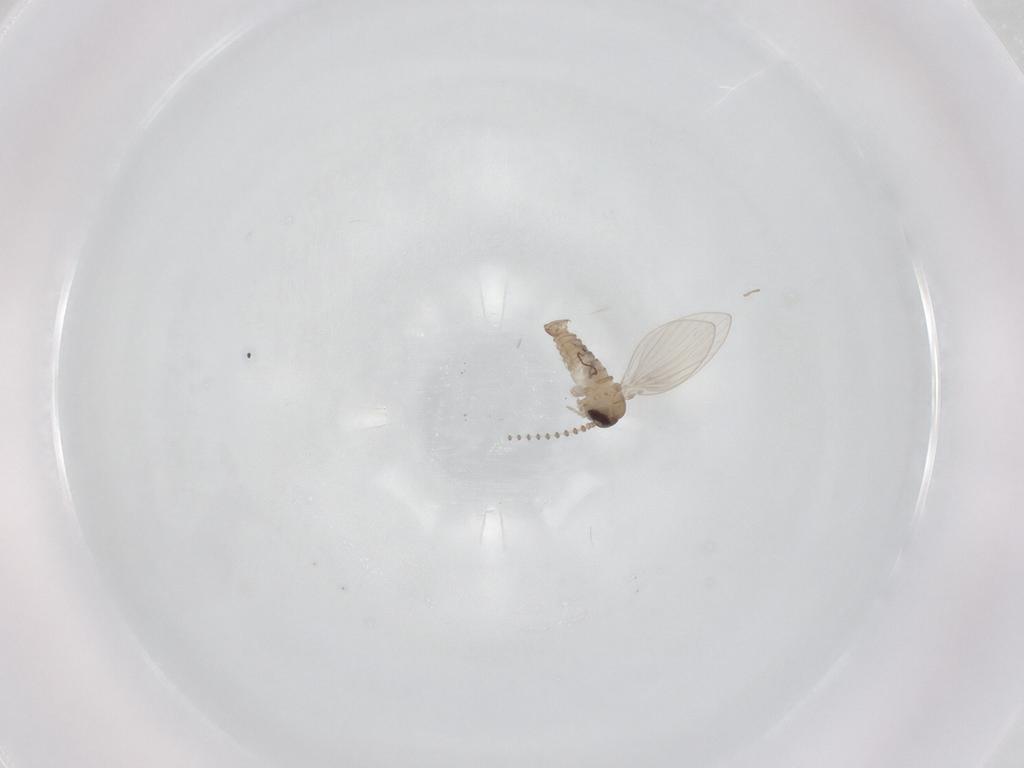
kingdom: Animalia
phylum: Arthropoda
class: Insecta
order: Diptera
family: Psychodidae
